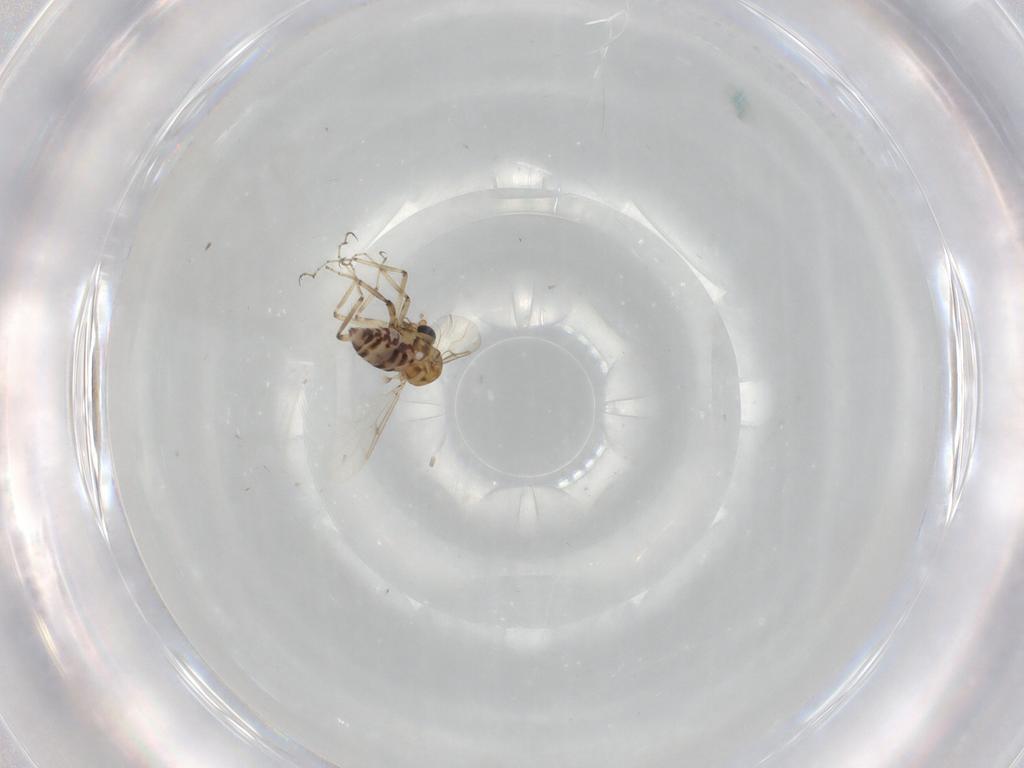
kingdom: Animalia
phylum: Arthropoda
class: Insecta
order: Diptera
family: Ceratopogonidae
